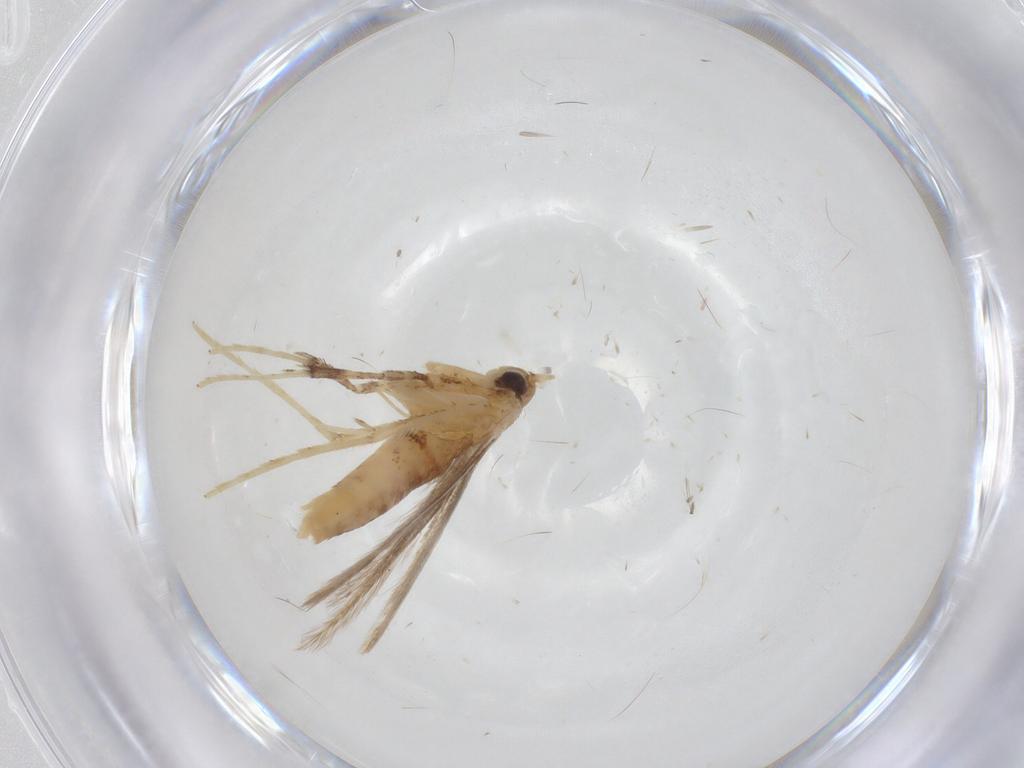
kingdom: Animalia
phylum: Arthropoda
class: Insecta
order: Lepidoptera
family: Gracillariidae
